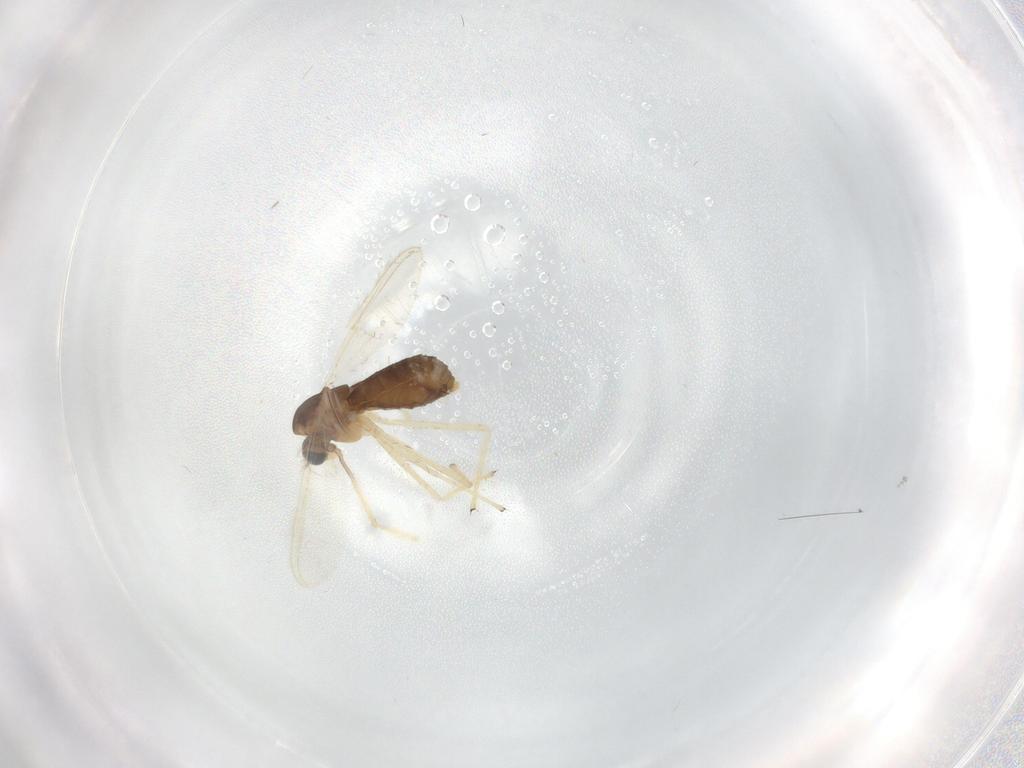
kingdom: Animalia
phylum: Arthropoda
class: Insecta
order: Diptera
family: Chironomidae
